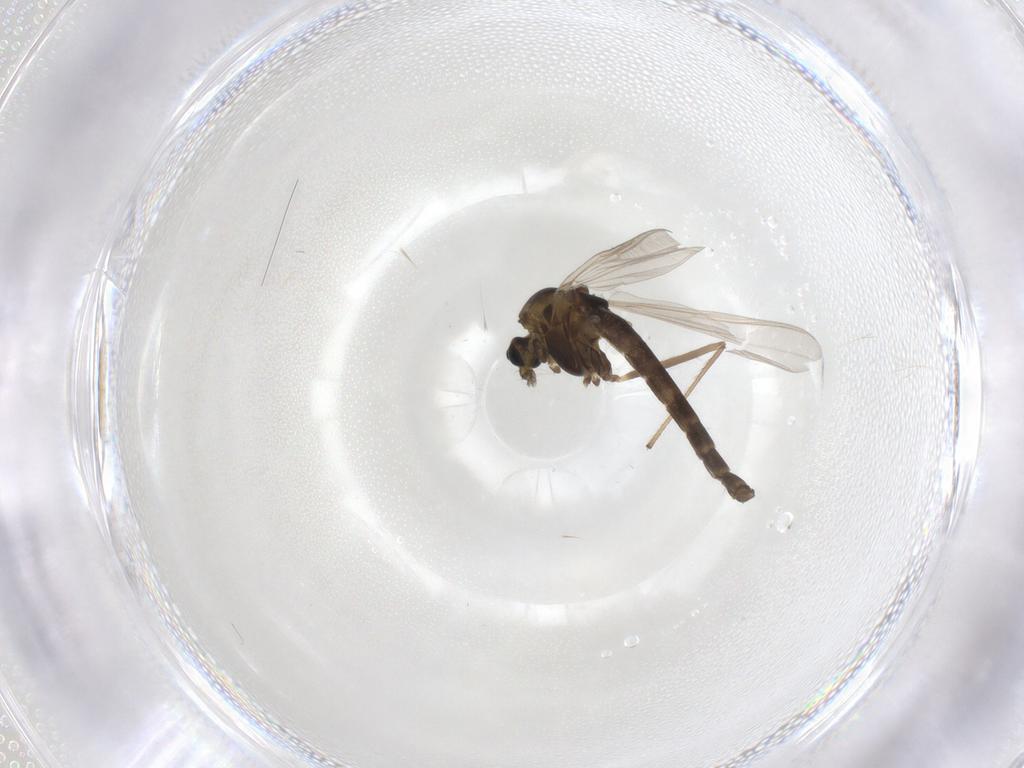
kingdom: Animalia
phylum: Arthropoda
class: Insecta
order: Diptera
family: Chironomidae
